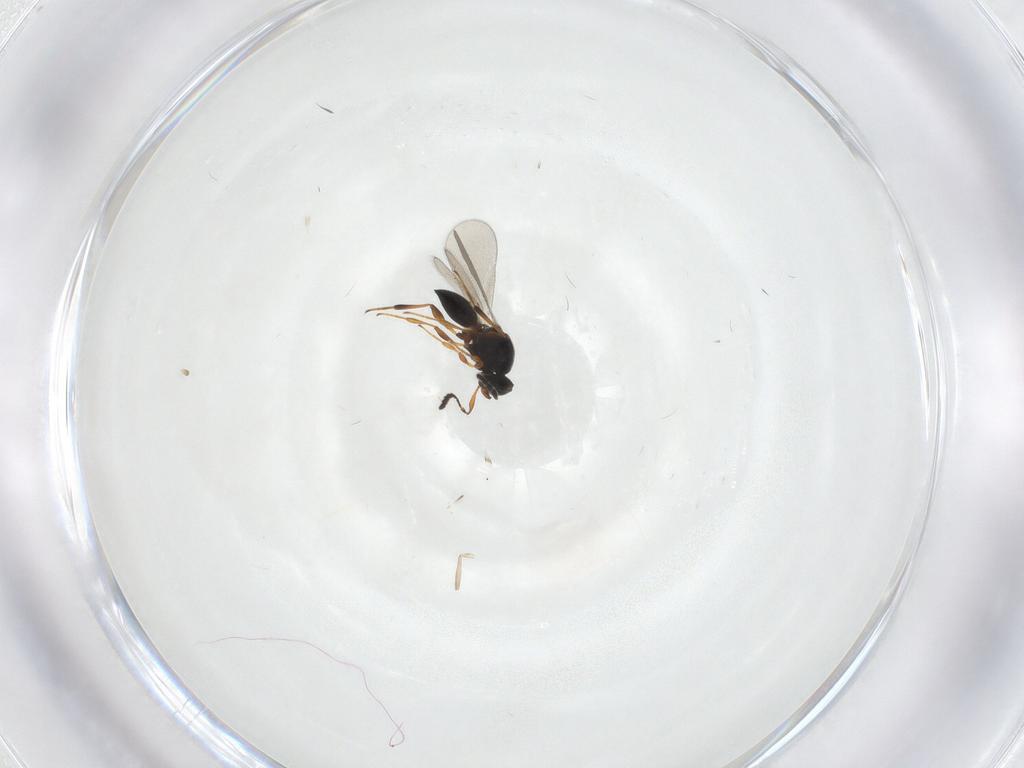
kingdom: Animalia
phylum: Arthropoda
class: Insecta
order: Hymenoptera
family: Platygastridae
